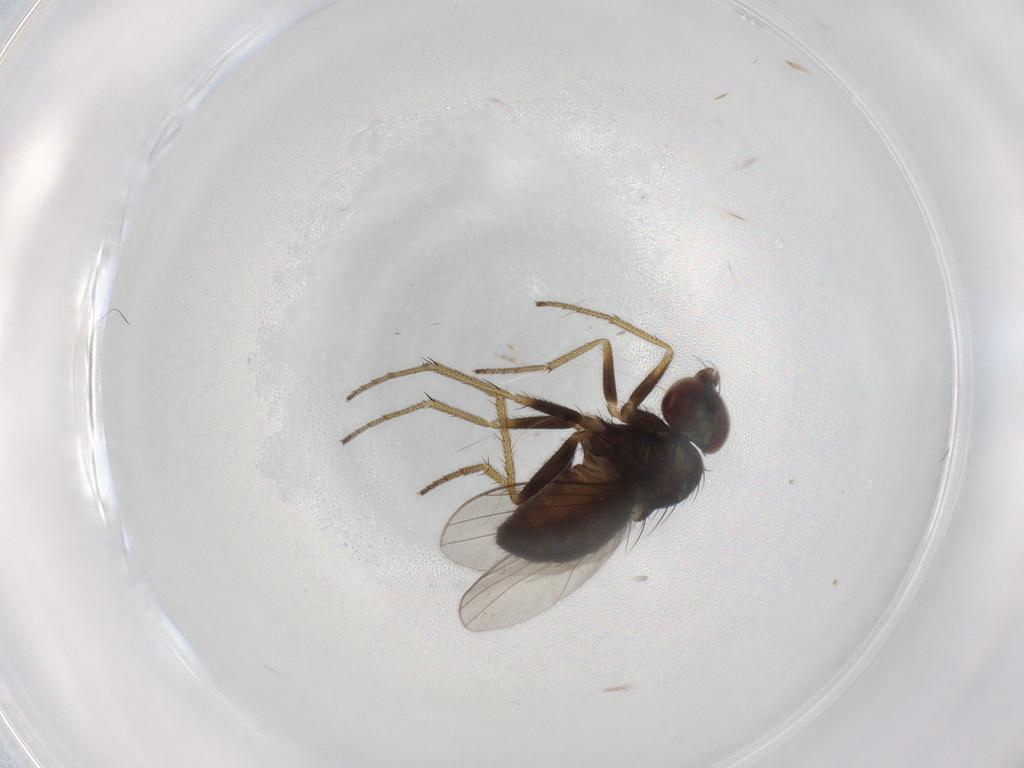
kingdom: Animalia
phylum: Arthropoda
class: Insecta
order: Diptera
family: Dolichopodidae
